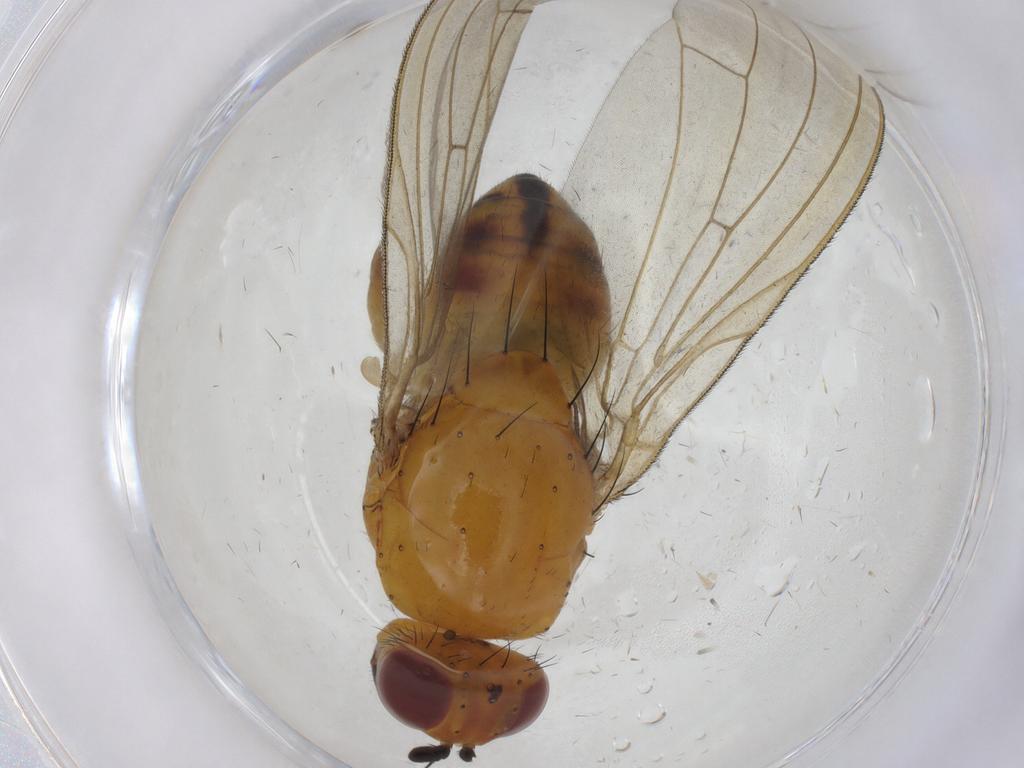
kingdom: Animalia
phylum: Arthropoda
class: Insecta
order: Diptera
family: Lauxaniidae
